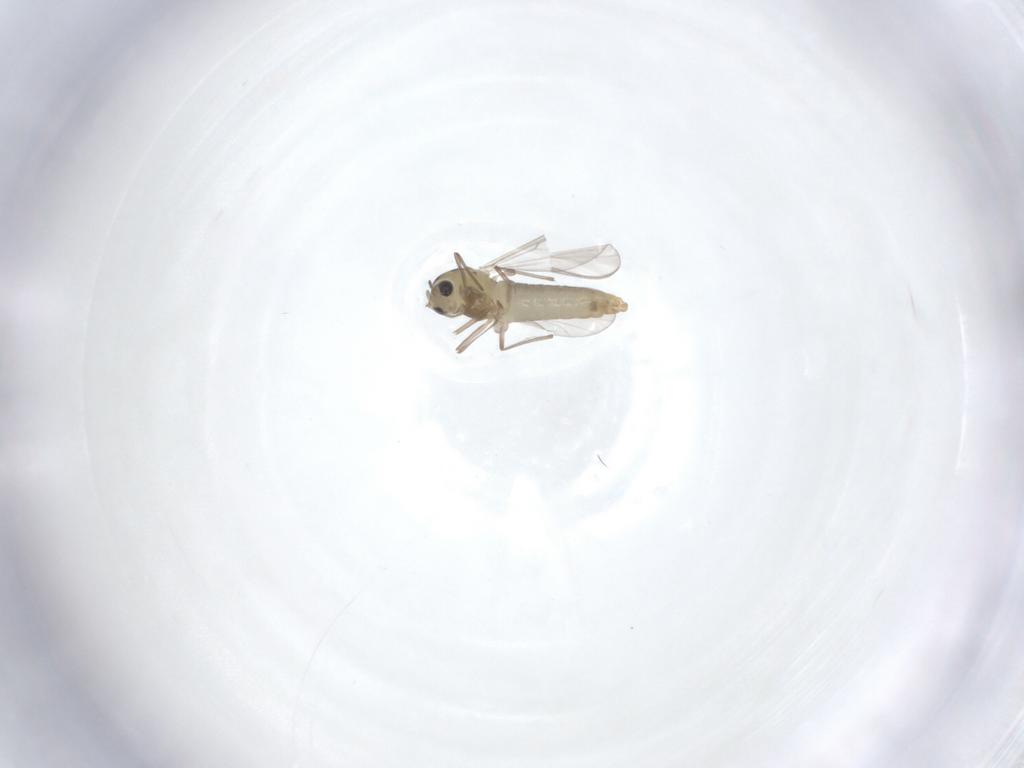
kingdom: Animalia
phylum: Arthropoda
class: Insecta
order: Diptera
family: Chironomidae
